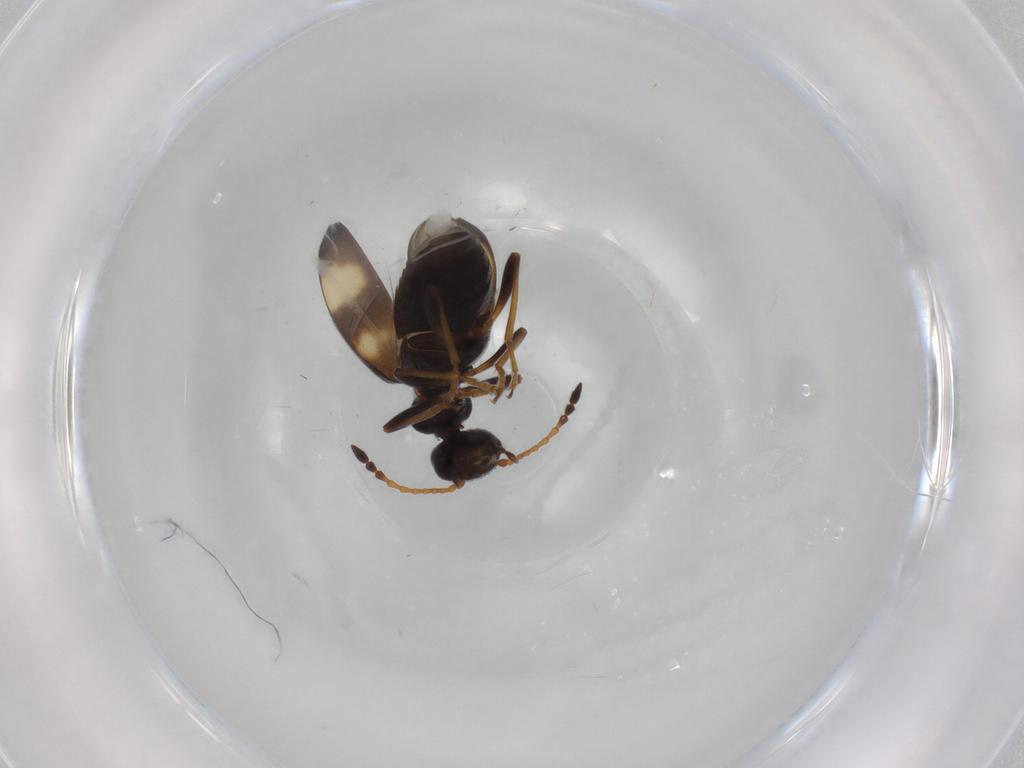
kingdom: Animalia
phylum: Arthropoda
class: Insecta
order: Coleoptera
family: Anthicidae
